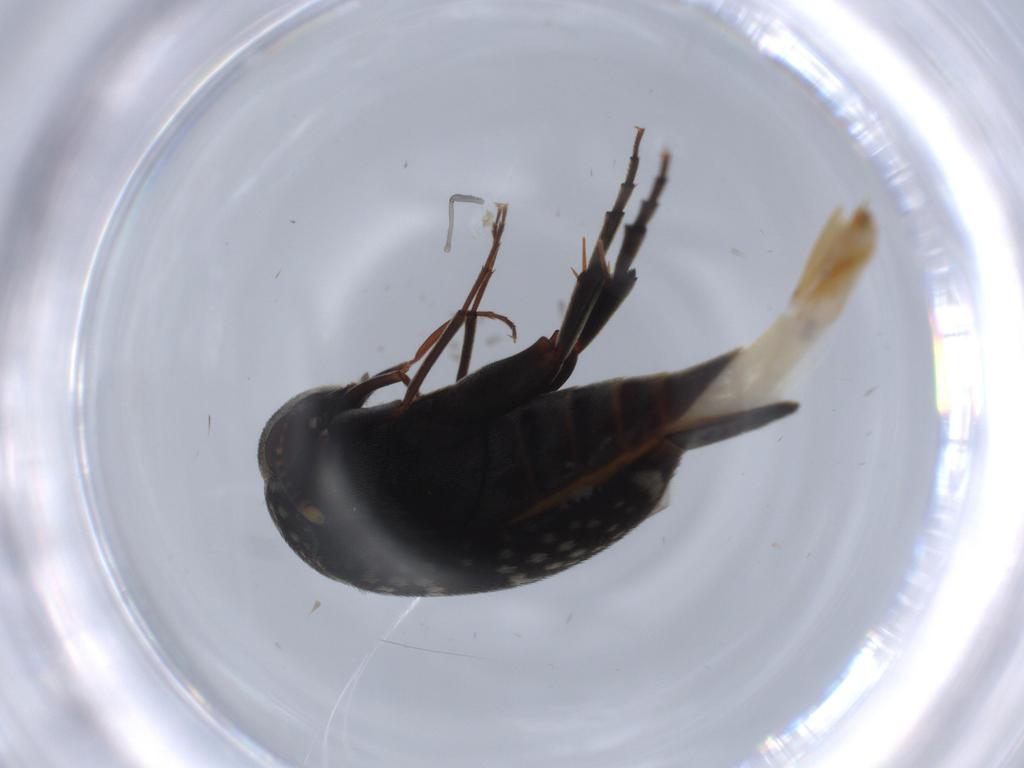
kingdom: Animalia
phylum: Arthropoda
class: Insecta
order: Coleoptera
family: Mordellidae
